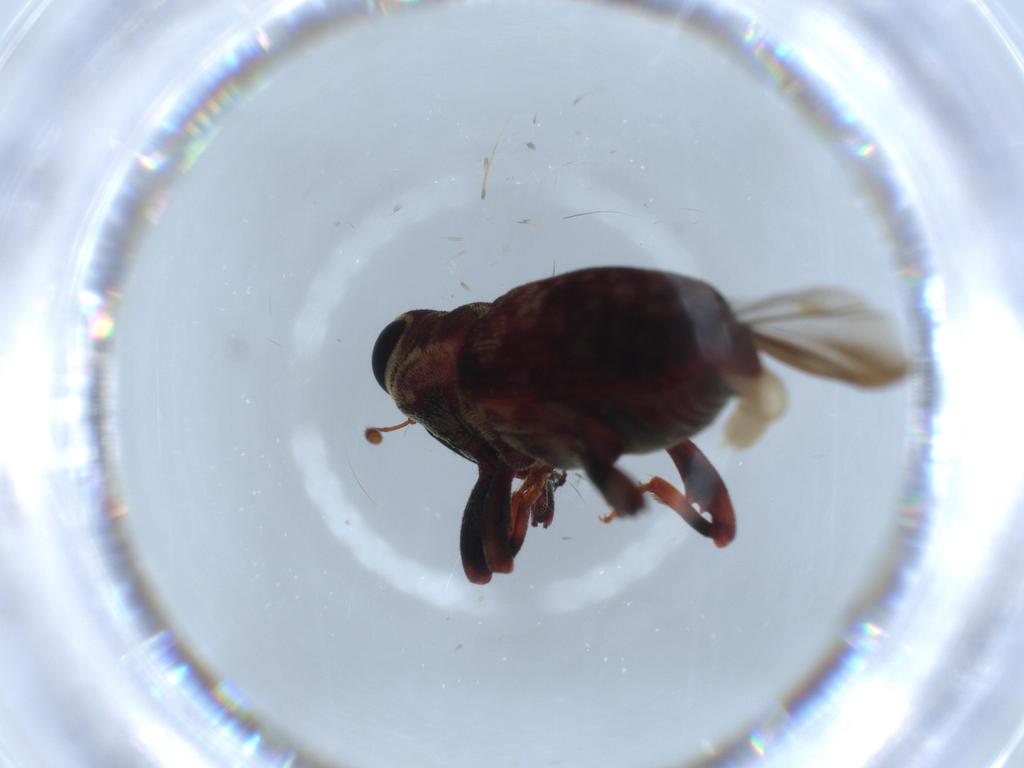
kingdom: Animalia
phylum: Arthropoda
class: Insecta
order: Coleoptera
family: Curculionidae
